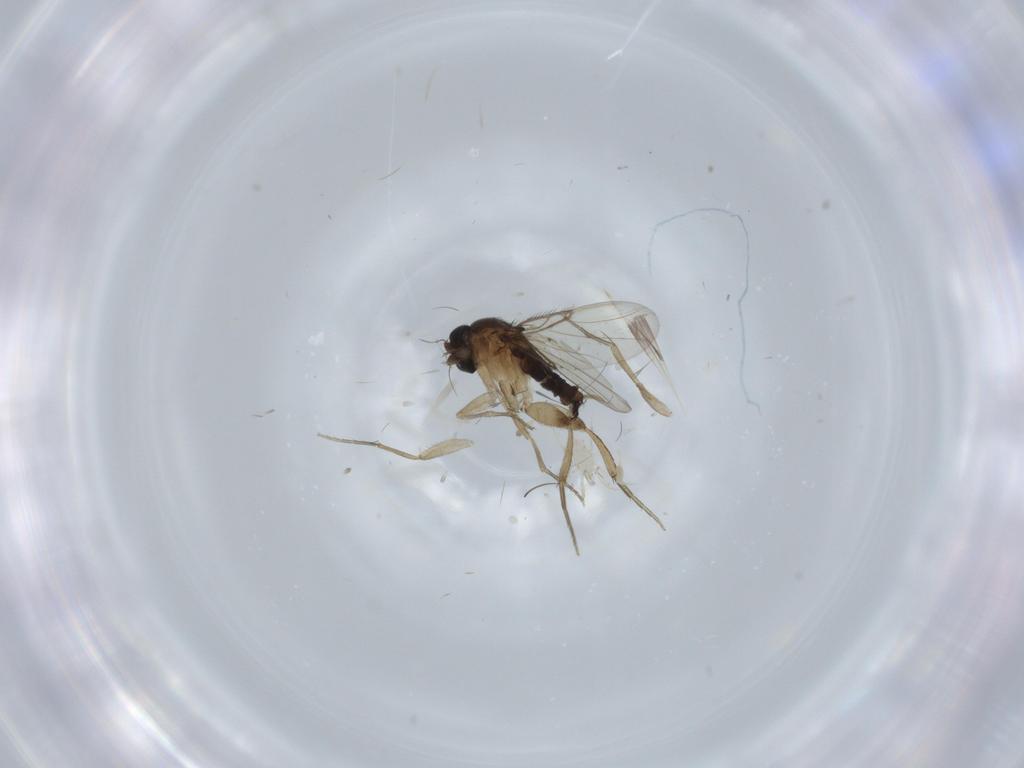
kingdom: Animalia
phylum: Arthropoda
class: Insecta
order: Diptera
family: Phoridae
